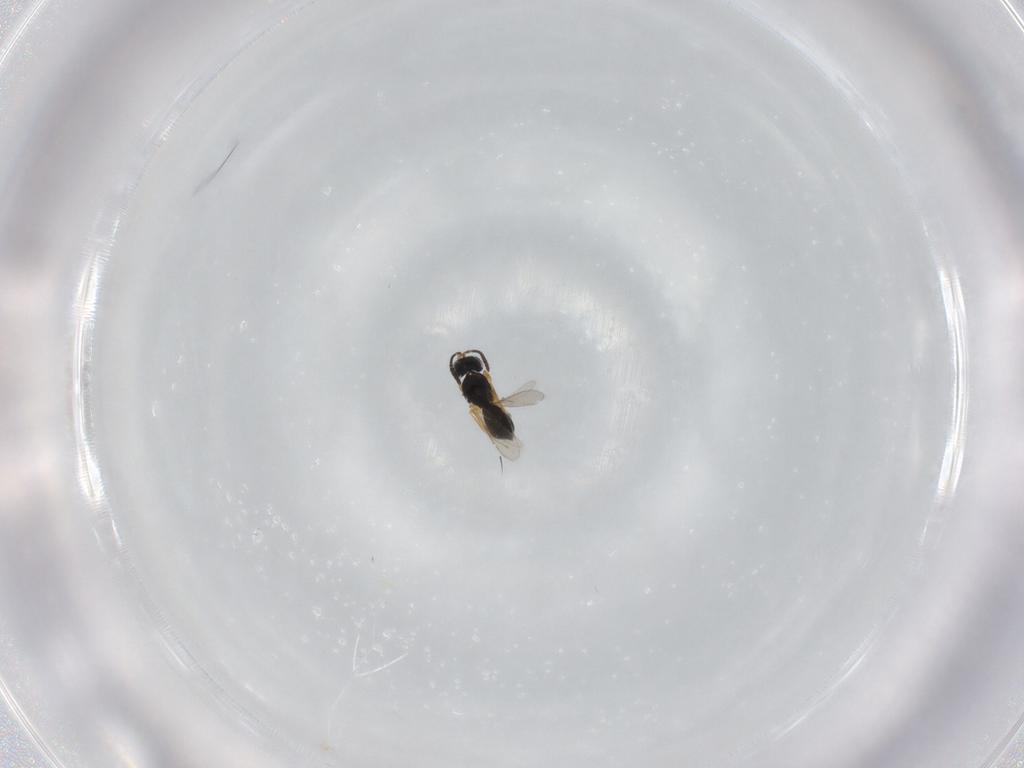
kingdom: Animalia
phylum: Arthropoda
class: Insecta
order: Hymenoptera
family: Scelionidae
